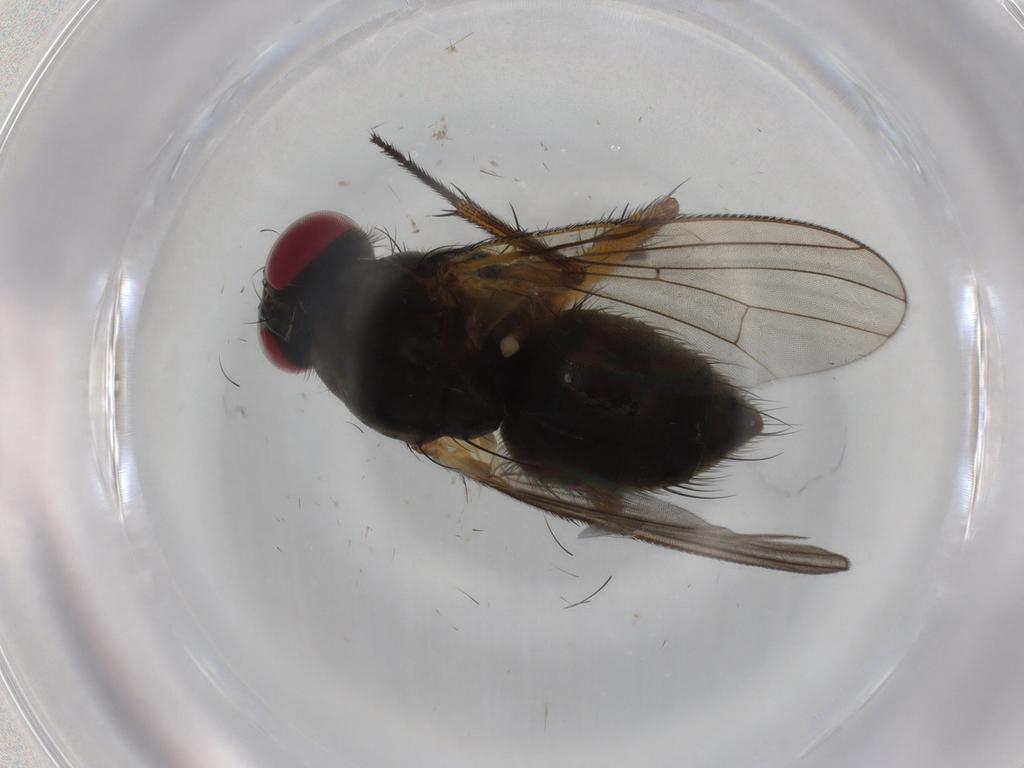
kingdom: Animalia
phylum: Arthropoda
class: Insecta
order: Diptera
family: Muscidae
